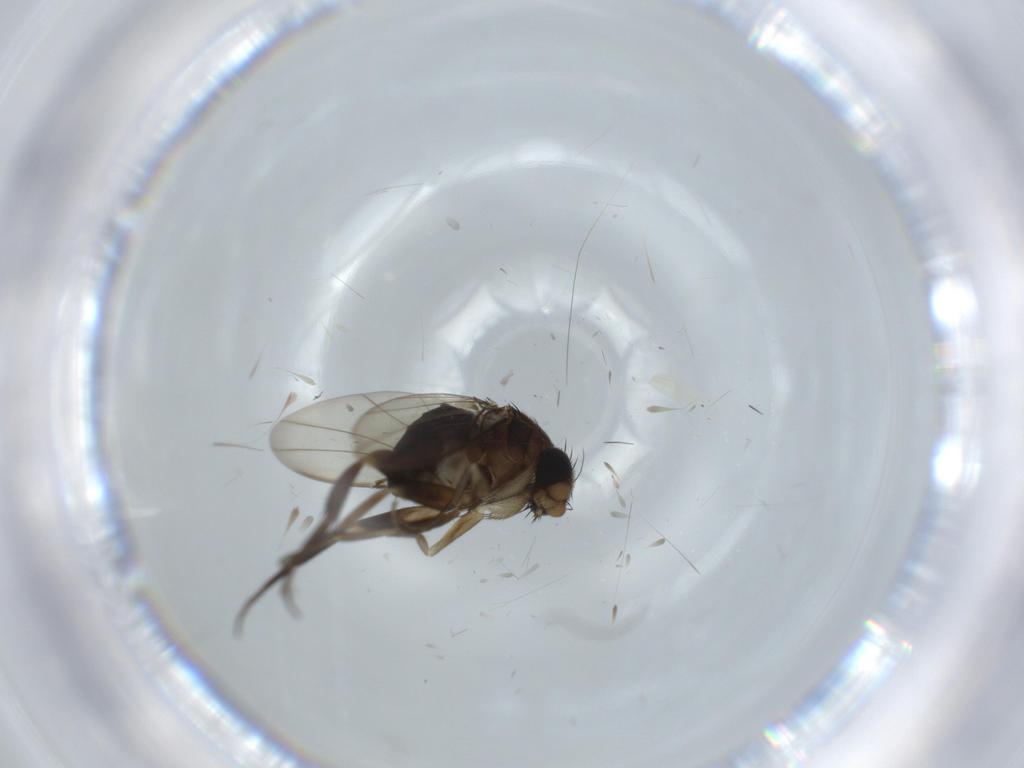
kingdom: Animalia
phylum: Arthropoda
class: Insecta
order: Diptera
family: Phoridae
